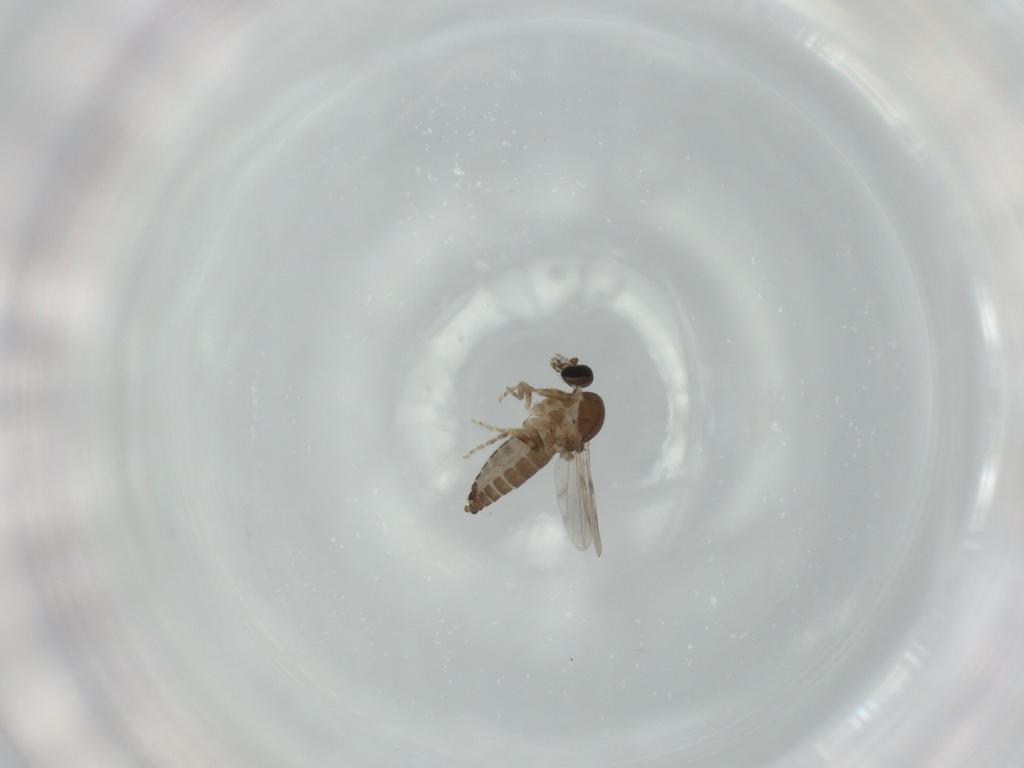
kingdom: Animalia
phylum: Arthropoda
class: Insecta
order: Diptera
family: Ceratopogonidae
